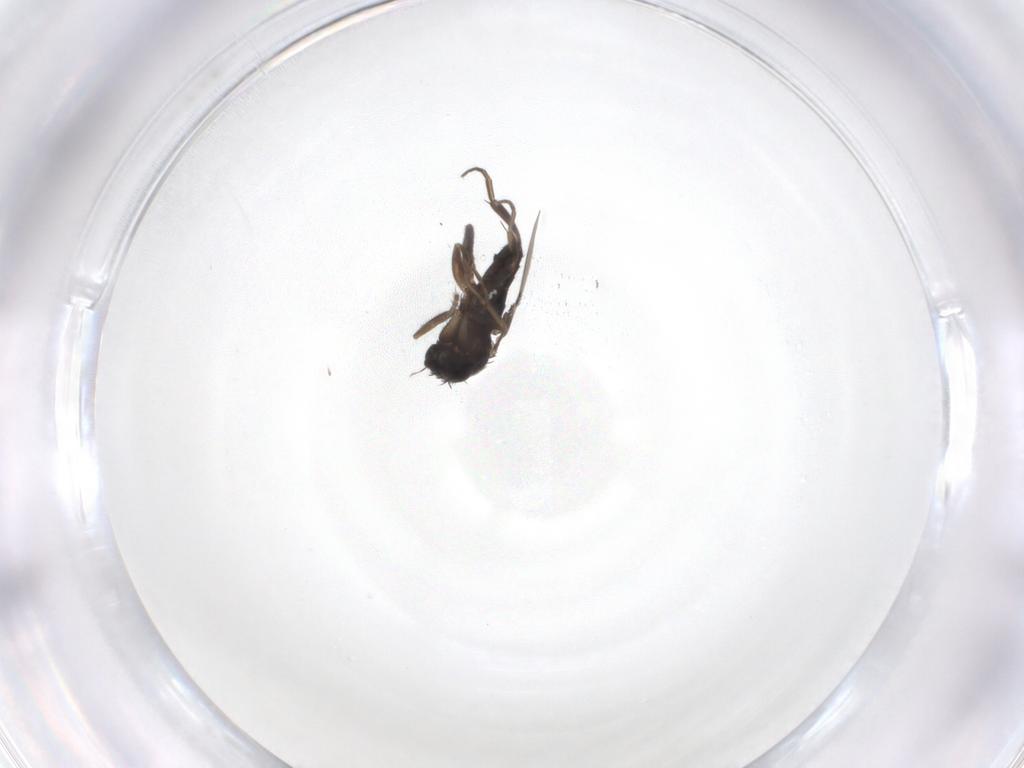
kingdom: Animalia
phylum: Arthropoda
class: Insecta
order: Diptera
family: Phoridae
